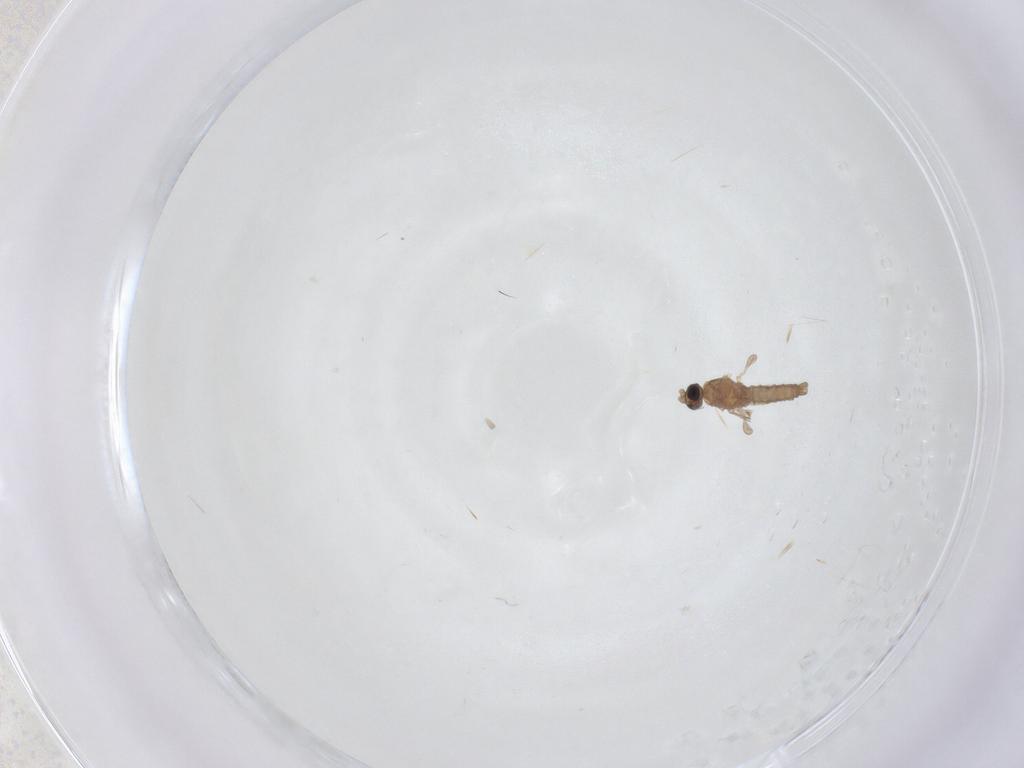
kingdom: Animalia
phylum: Arthropoda
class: Insecta
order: Diptera
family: Cecidomyiidae
